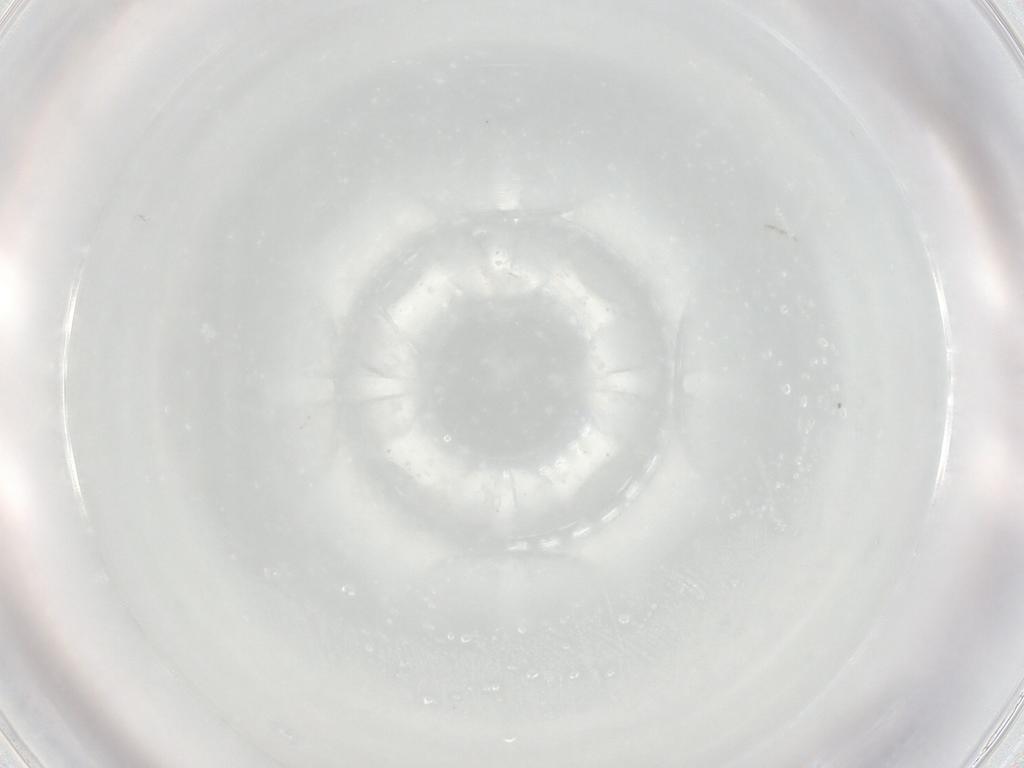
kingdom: Animalia
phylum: Arthropoda
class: Insecta
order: Hymenoptera
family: Mymaridae
